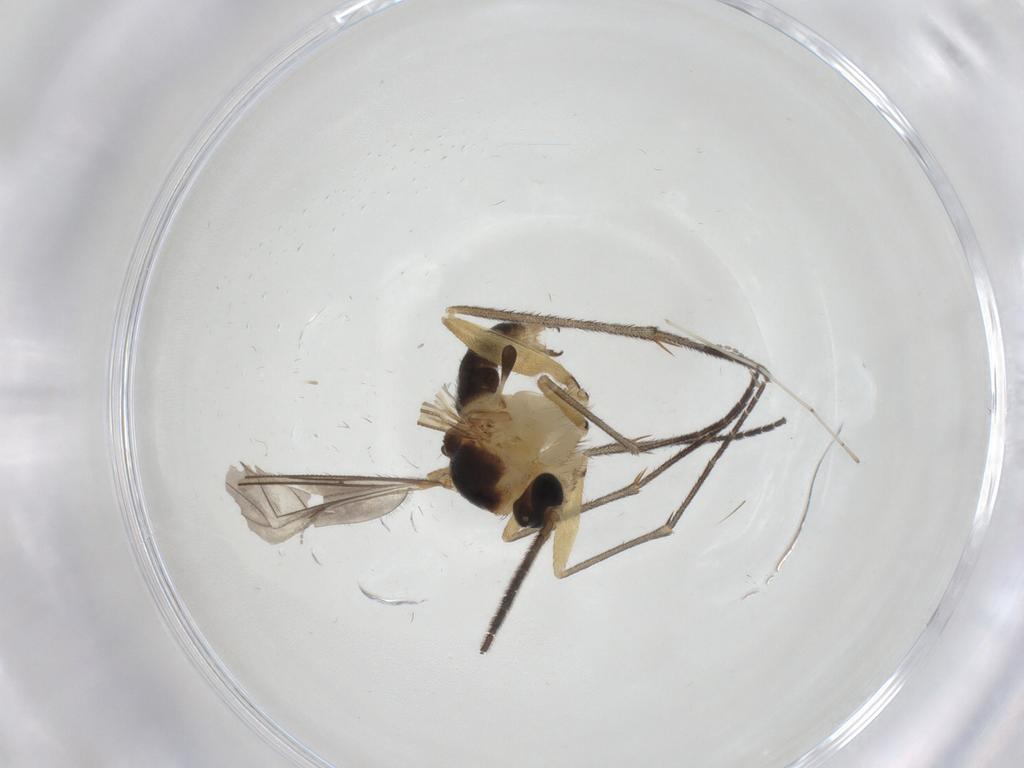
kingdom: Animalia
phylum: Arthropoda
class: Insecta
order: Diptera
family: Sciaridae
